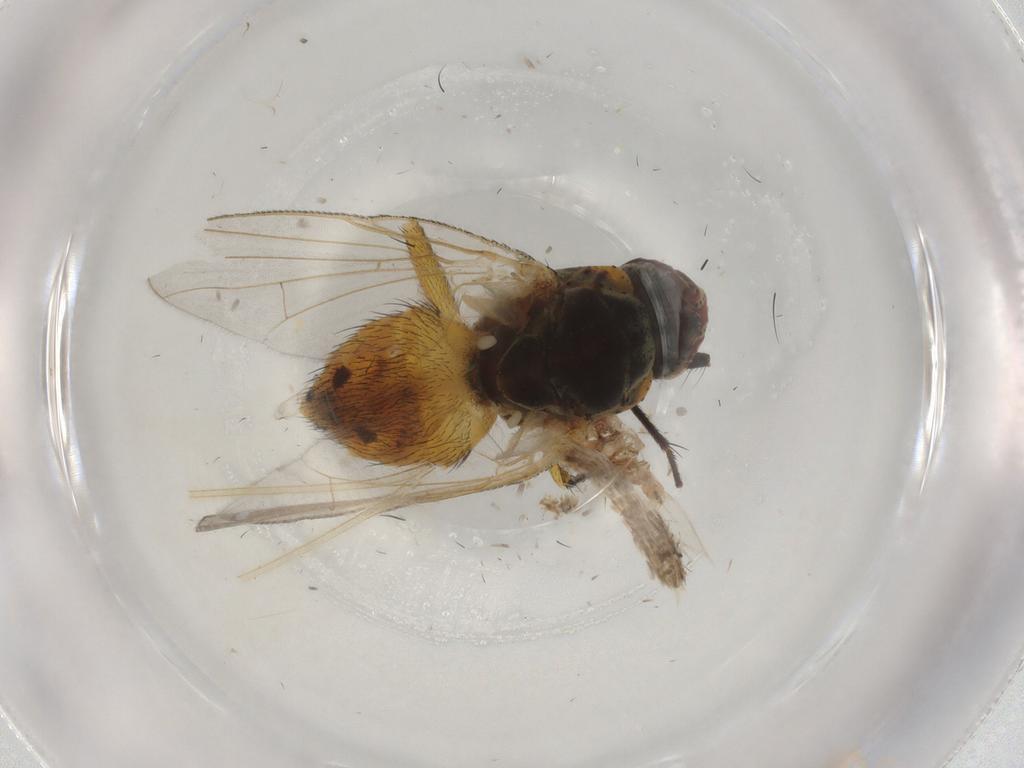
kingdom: Animalia
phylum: Arthropoda
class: Insecta
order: Diptera
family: Muscidae
